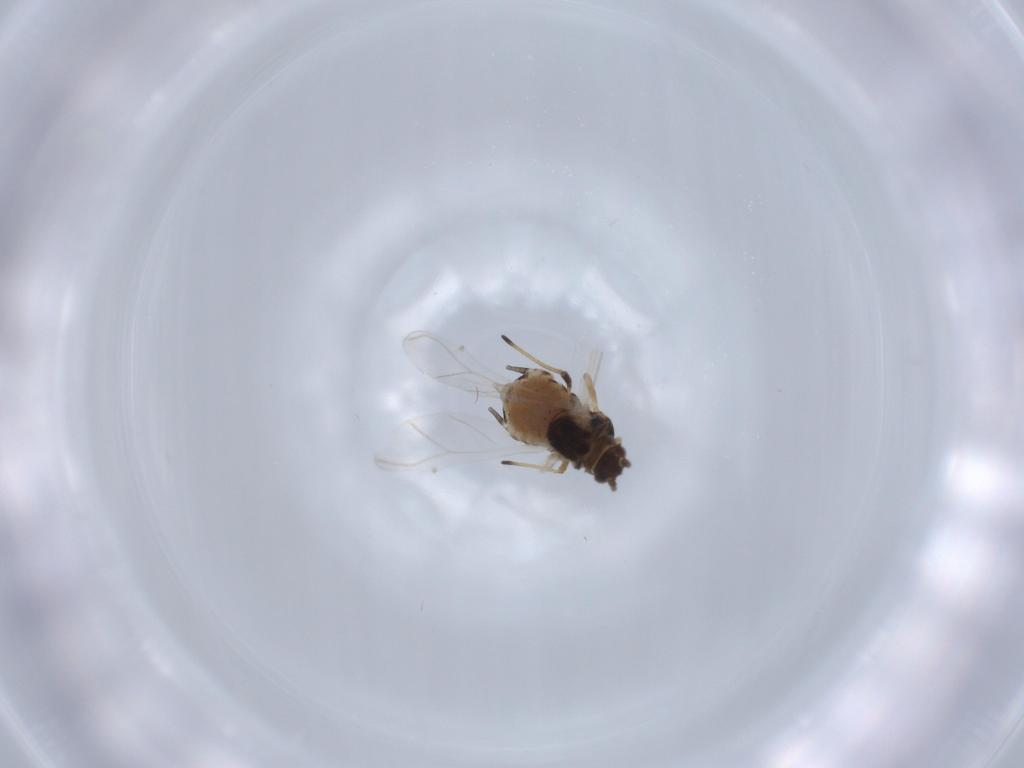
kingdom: Animalia
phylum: Arthropoda
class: Insecta
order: Hemiptera
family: Aphididae
